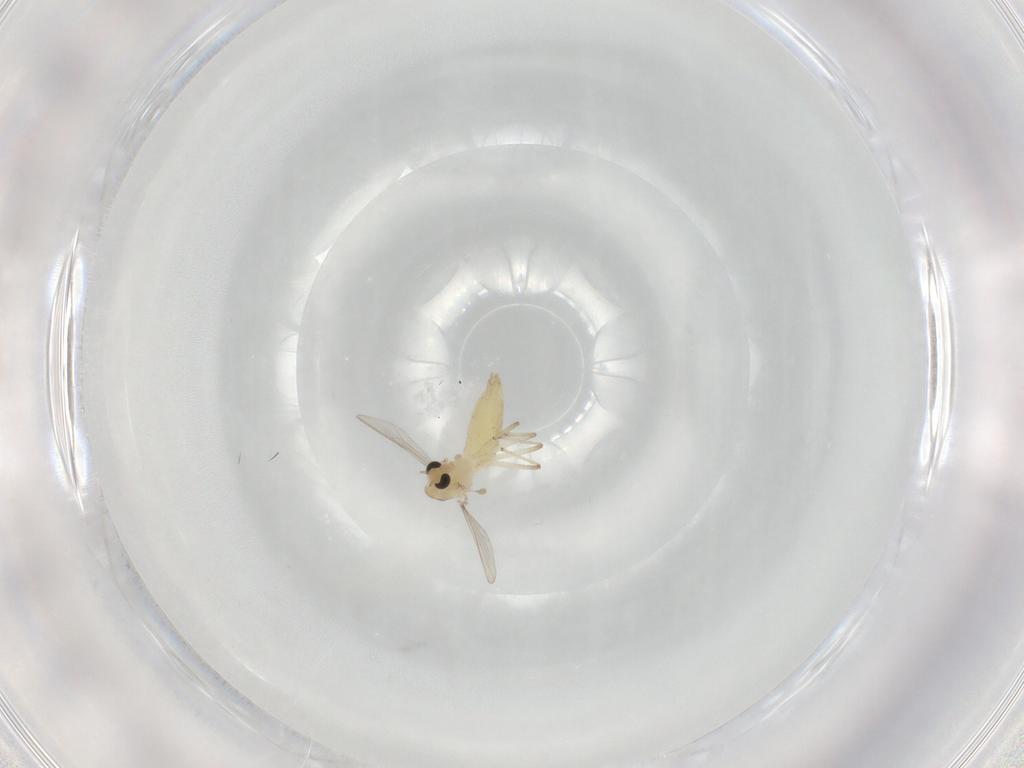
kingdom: Animalia
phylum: Arthropoda
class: Insecta
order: Diptera
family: Chironomidae
